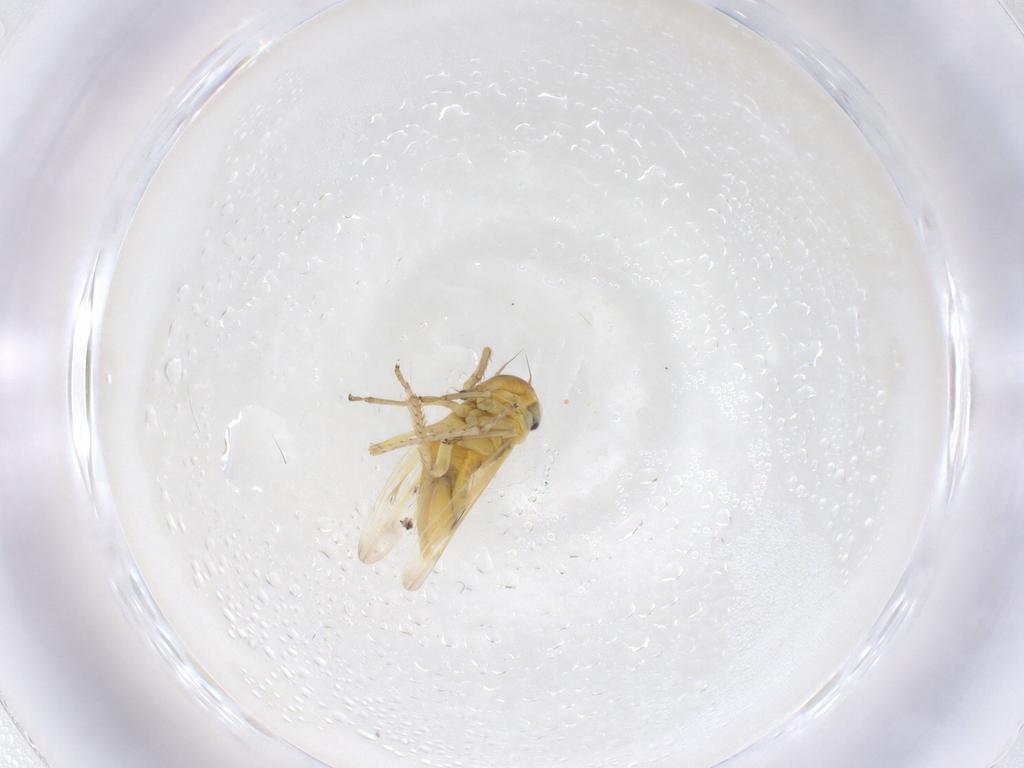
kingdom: Animalia
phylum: Arthropoda
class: Insecta
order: Hemiptera
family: Cicadellidae
